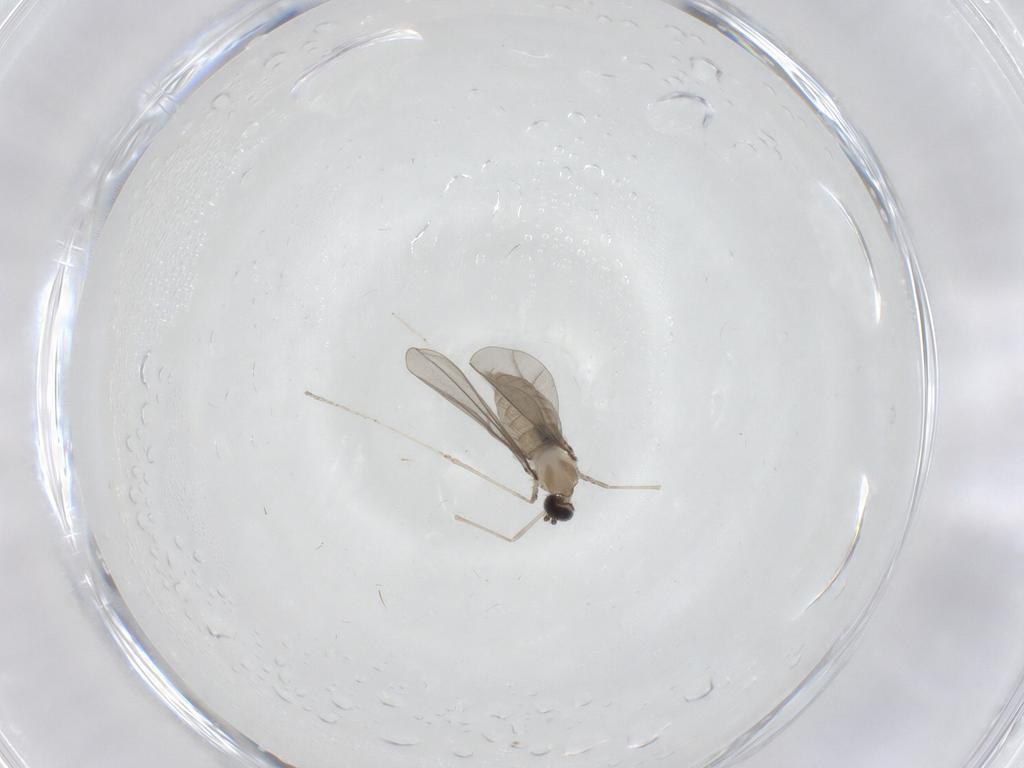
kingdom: Animalia
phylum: Arthropoda
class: Insecta
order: Diptera
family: Cecidomyiidae
